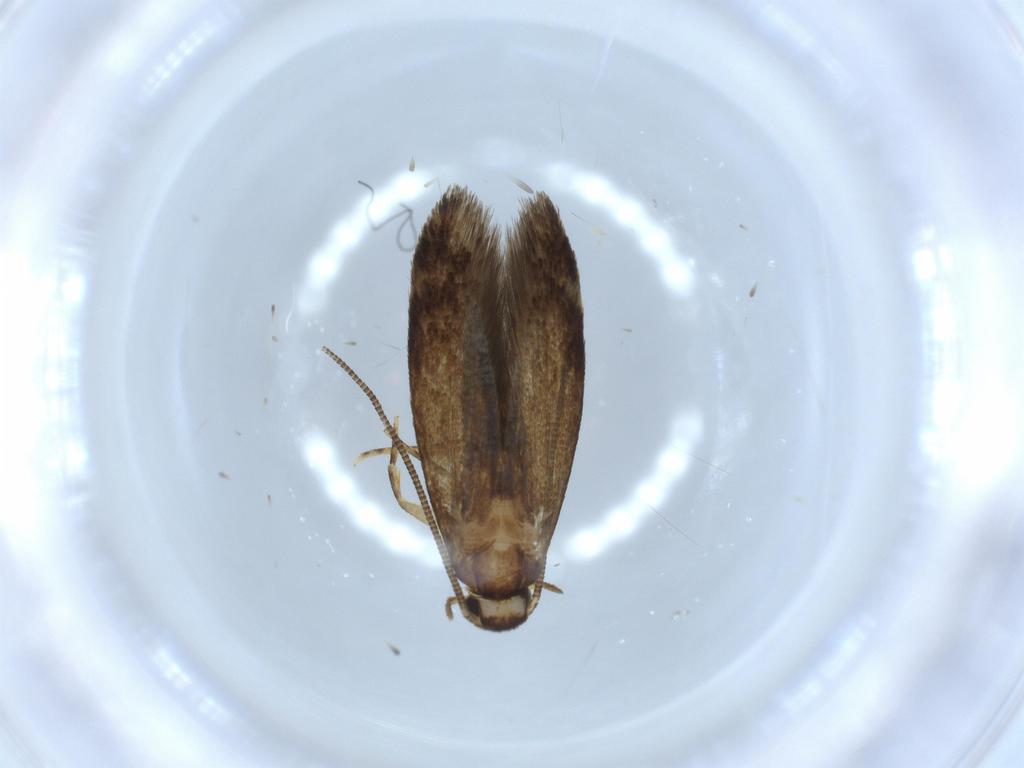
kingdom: Animalia
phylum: Arthropoda
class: Insecta
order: Lepidoptera
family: Tineidae
